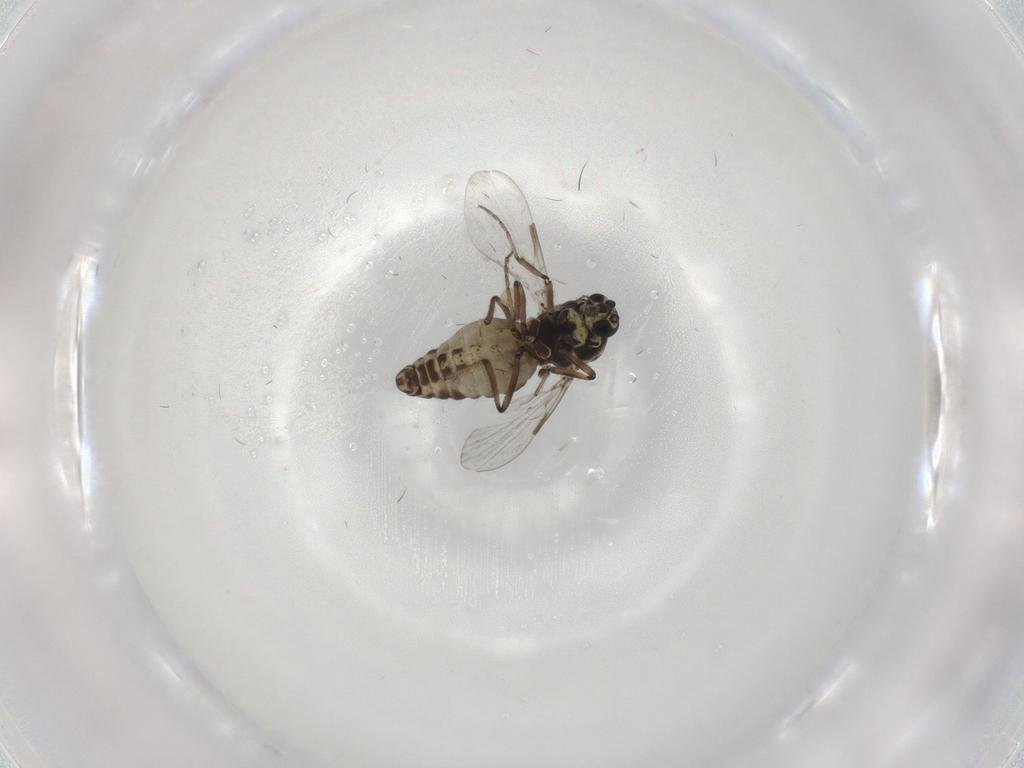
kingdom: Animalia
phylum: Arthropoda
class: Insecta
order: Diptera
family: Ceratopogonidae
